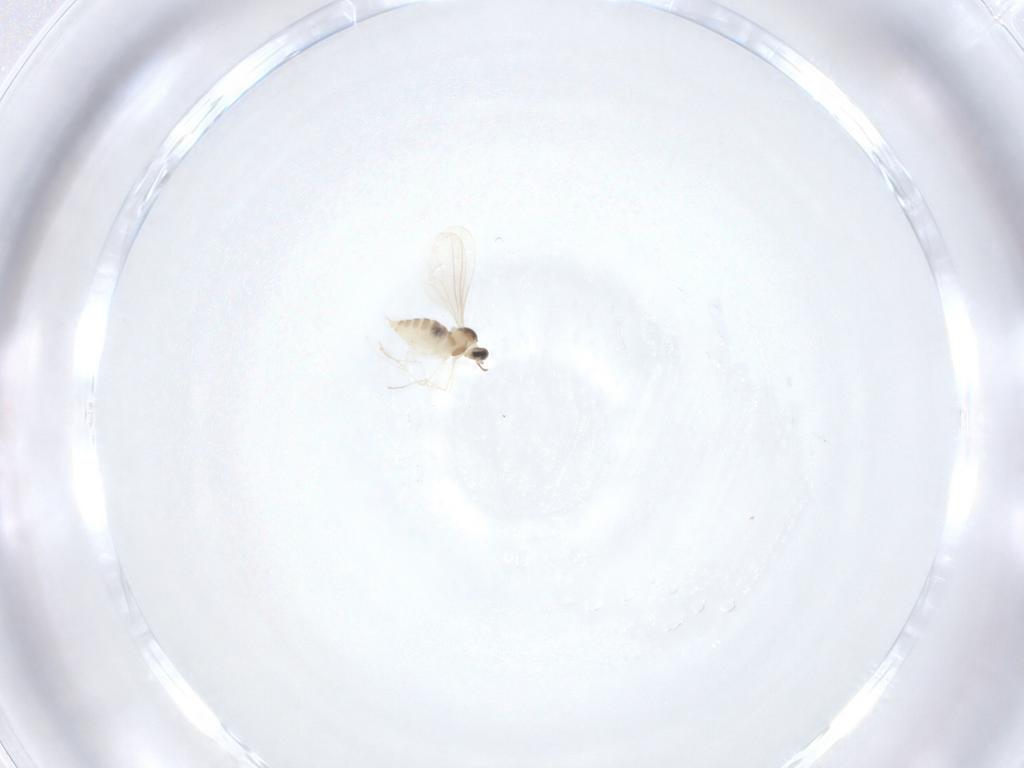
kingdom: Animalia
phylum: Arthropoda
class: Insecta
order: Diptera
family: Cecidomyiidae
